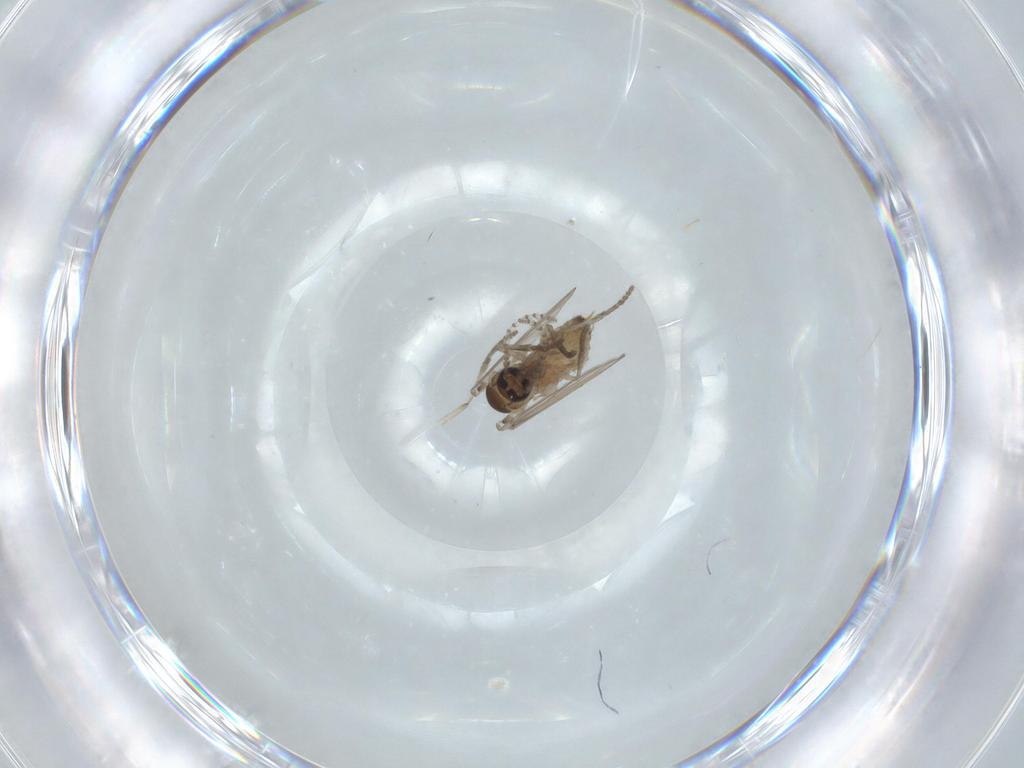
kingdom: Animalia
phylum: Arthropoda
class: Insecta
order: Diptera
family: Psychodidae
